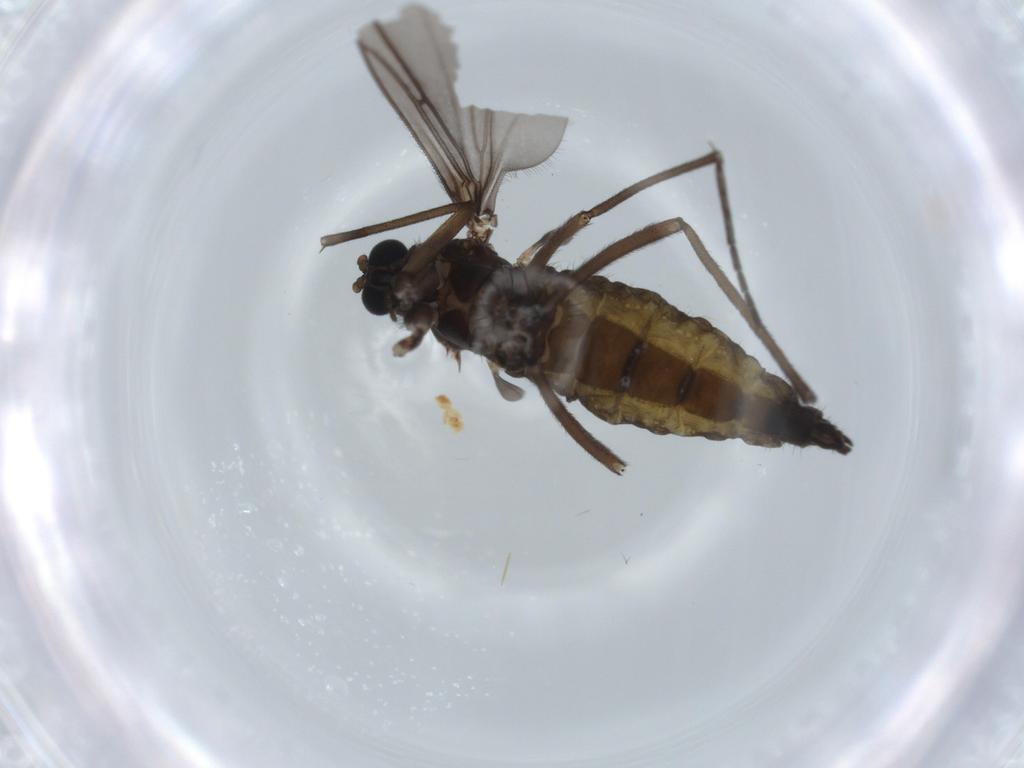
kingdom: Animalia
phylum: Arthropoda
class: Insecta
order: Diptera
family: Sciaridae
